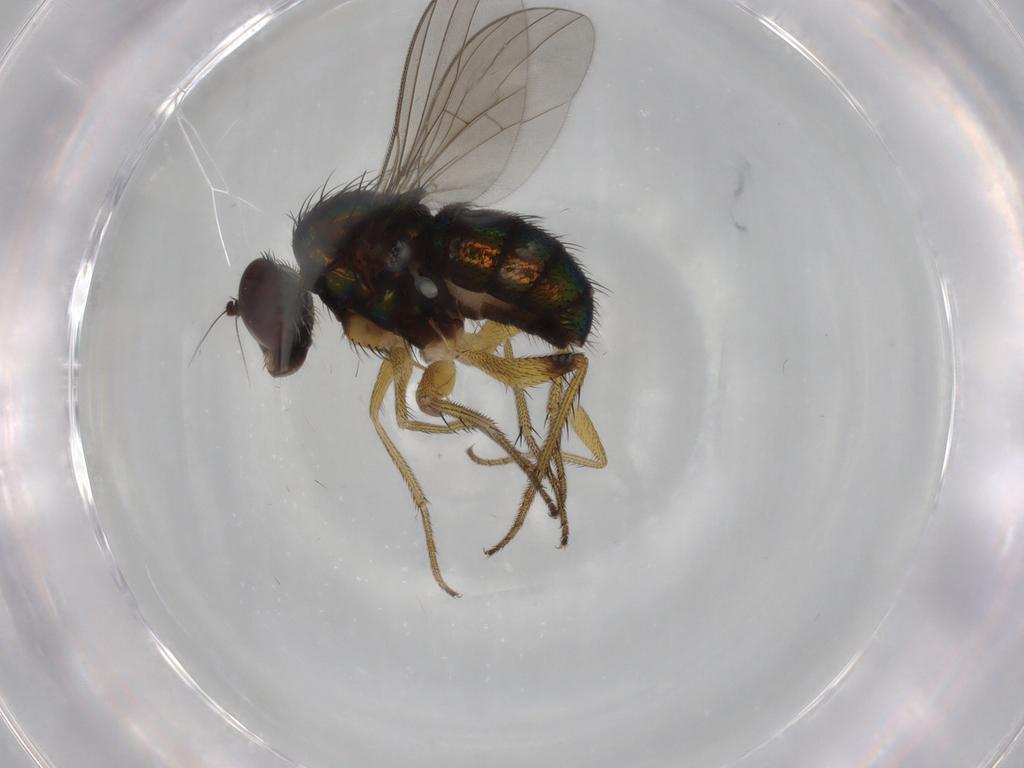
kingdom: Animalia
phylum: Arthropoda
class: Insecta
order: Diptera
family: Dolichopodidae
